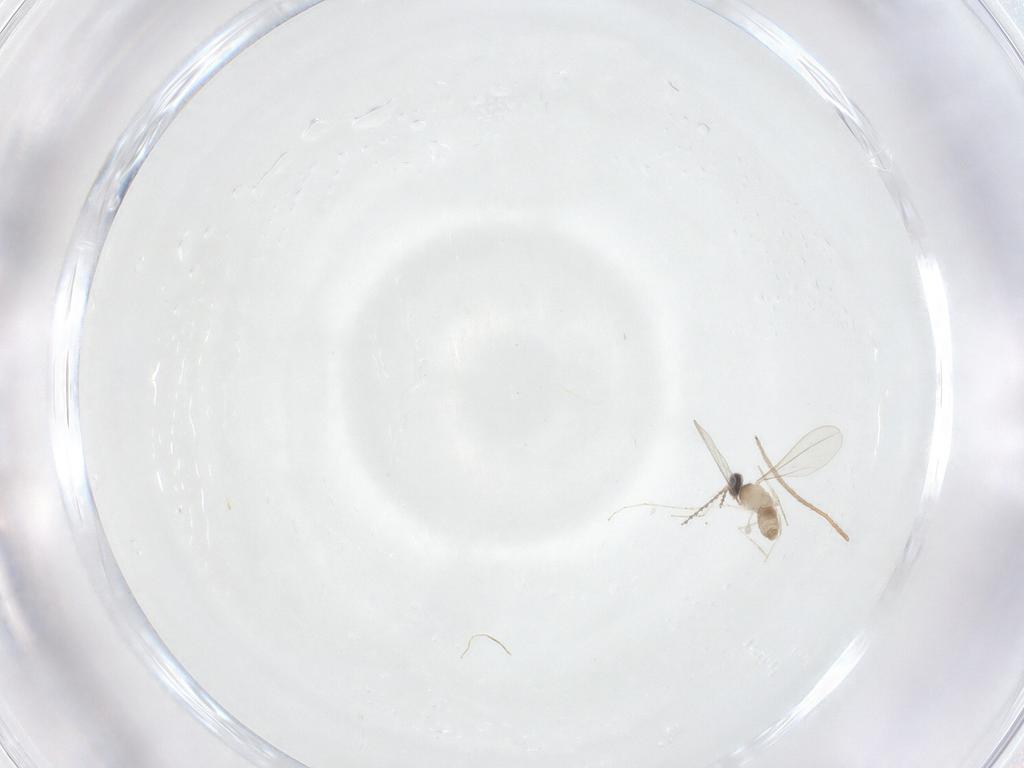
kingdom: Animalia
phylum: Arthropoda
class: Insecta
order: Diptera
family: Cecidomyiidae
